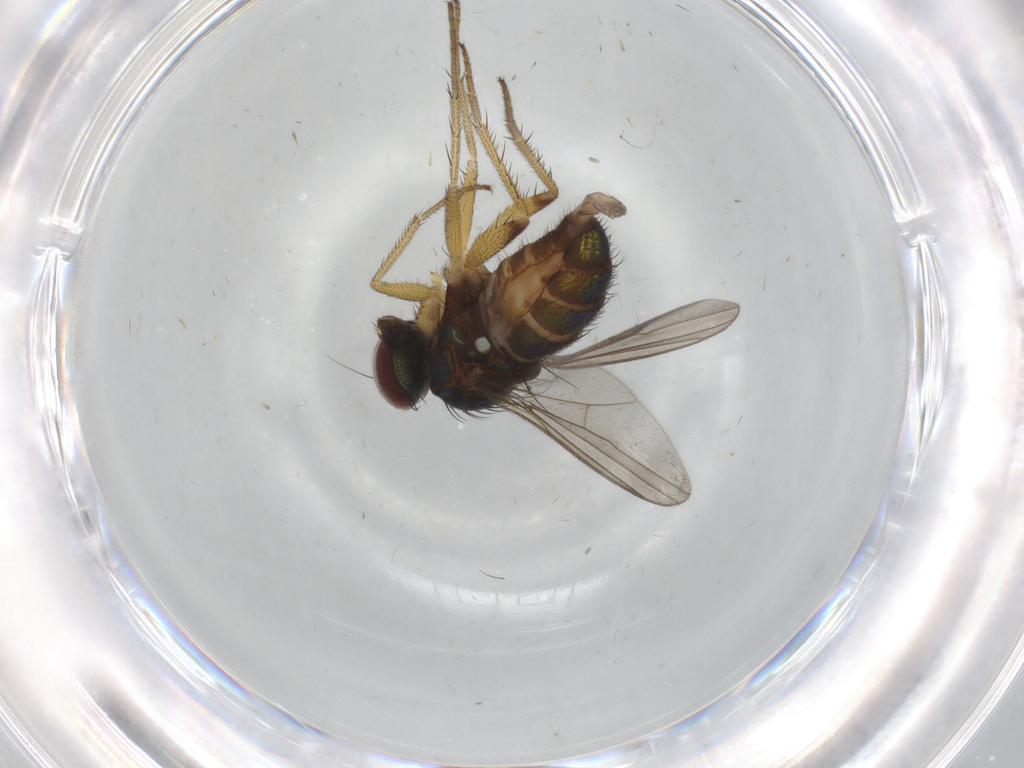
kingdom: Animalia
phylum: Arthropoda
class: Insecta
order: Diptera
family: Dolichopodidae
